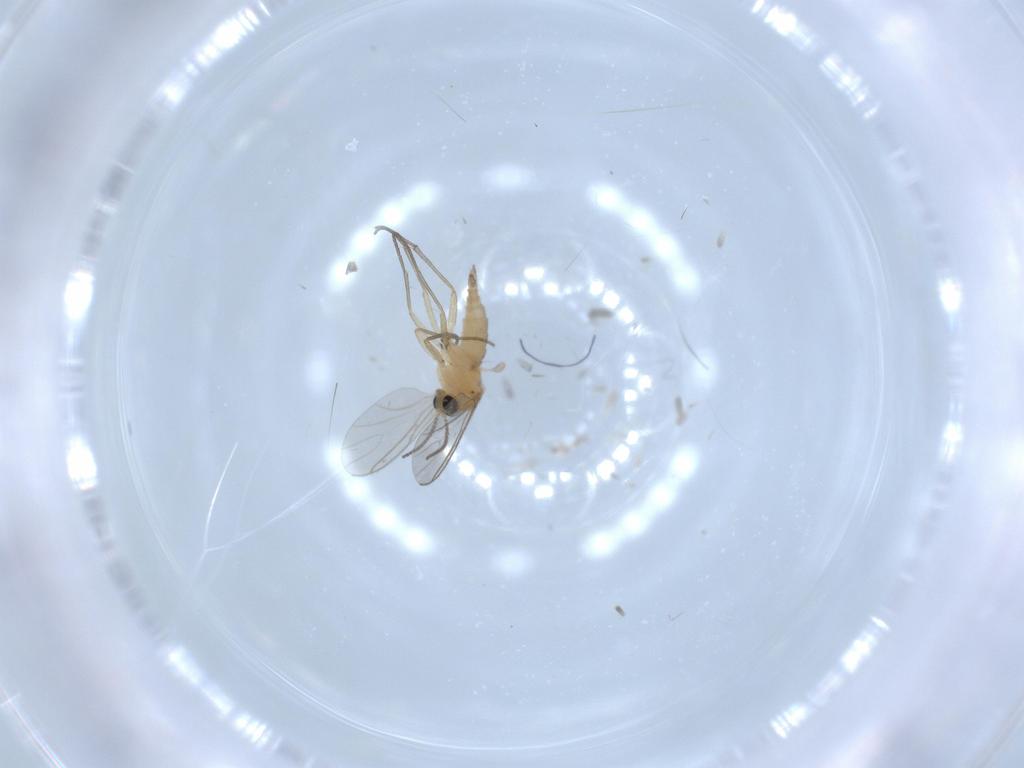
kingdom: Animalia
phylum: Arthropoda
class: Insecta
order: Diptera
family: Sciaridae
